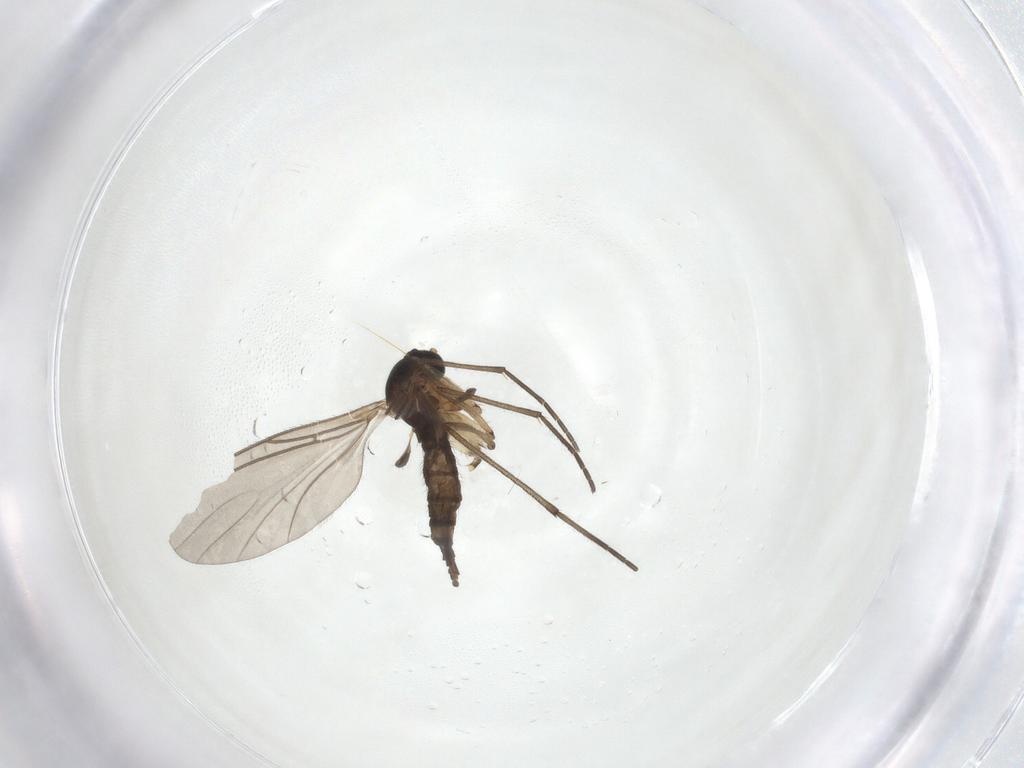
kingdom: Animalia
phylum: Arthropoda
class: Insecta
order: Diptera
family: Sciaridae
